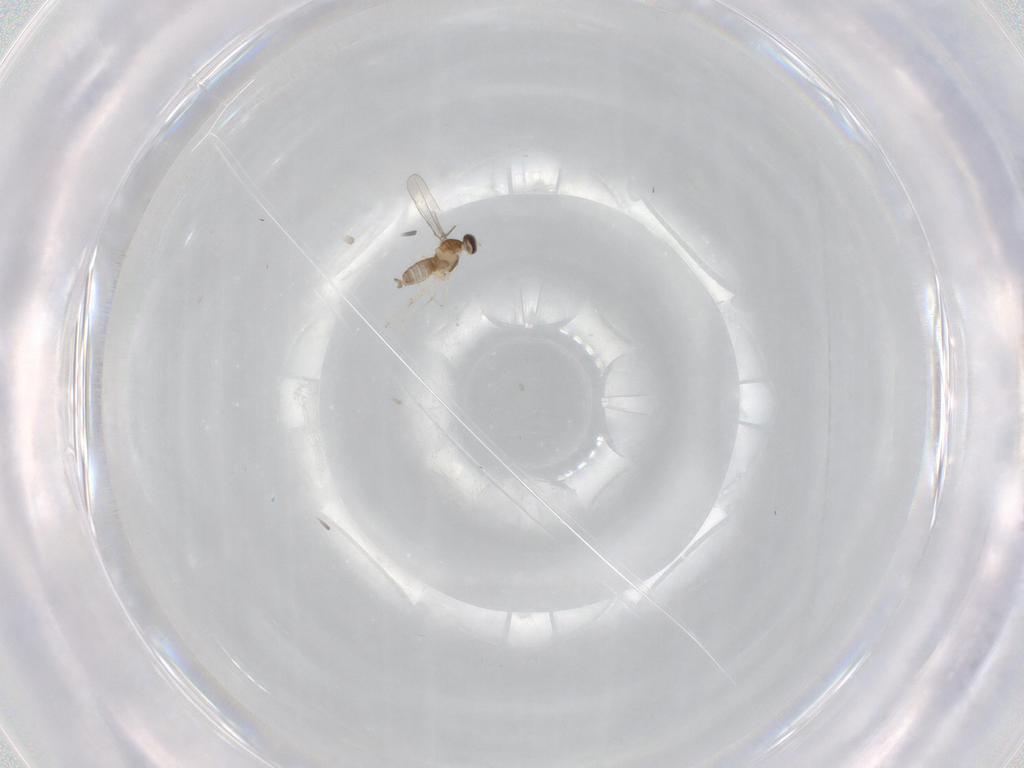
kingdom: Animalia
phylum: Arthropoda
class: Insecta
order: Diptera
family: Cecidomyiidae
